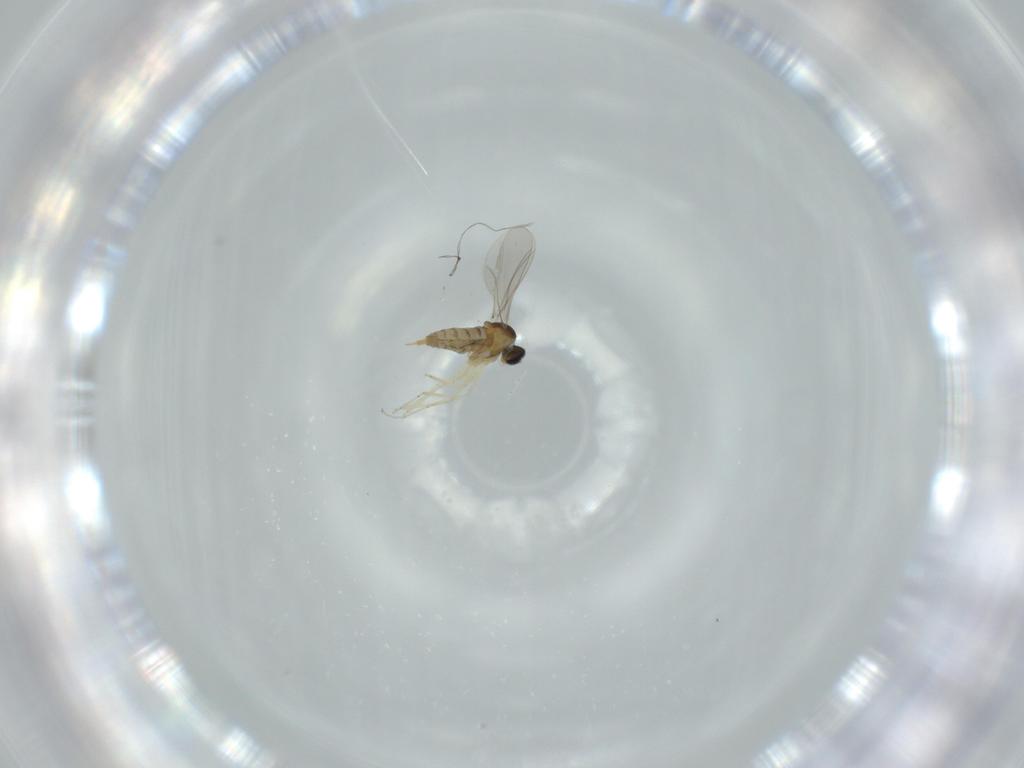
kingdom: Animalia
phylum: Arthropoda
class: Insecta
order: Diptera
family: Cecidomyiidae
